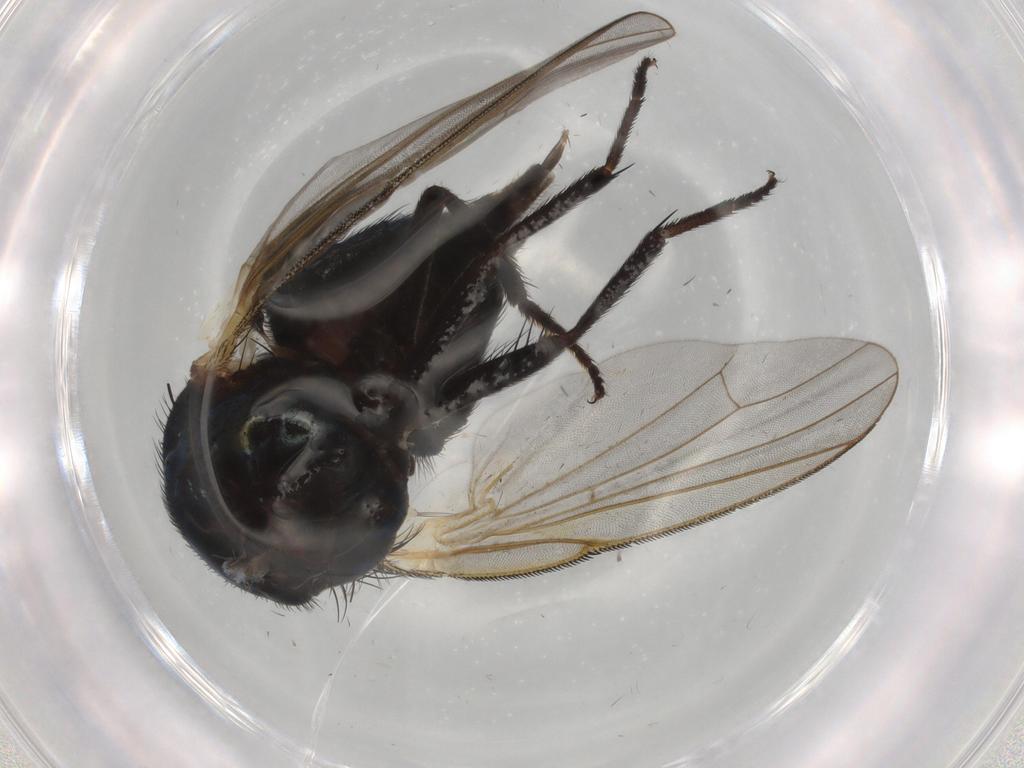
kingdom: Animalia
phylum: Arthropoda
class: Insecta
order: Diptera
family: Lonchaeidae
